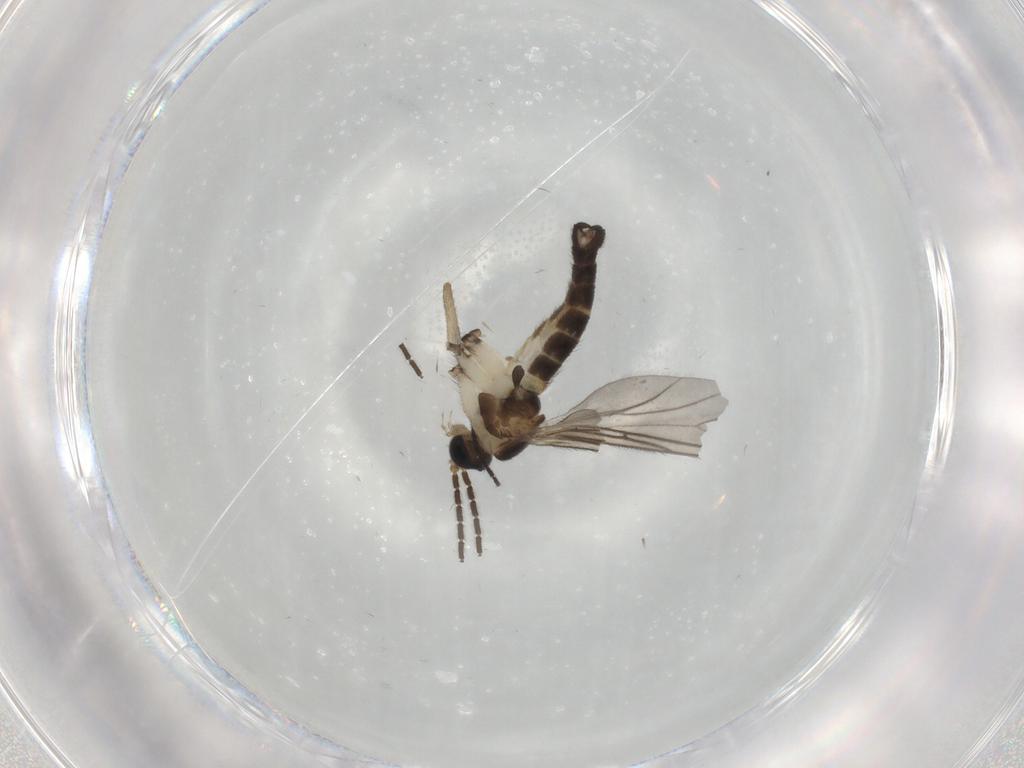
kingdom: Animalia
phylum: Arthropoda
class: Insecta
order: Diptera
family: Sciaridae
